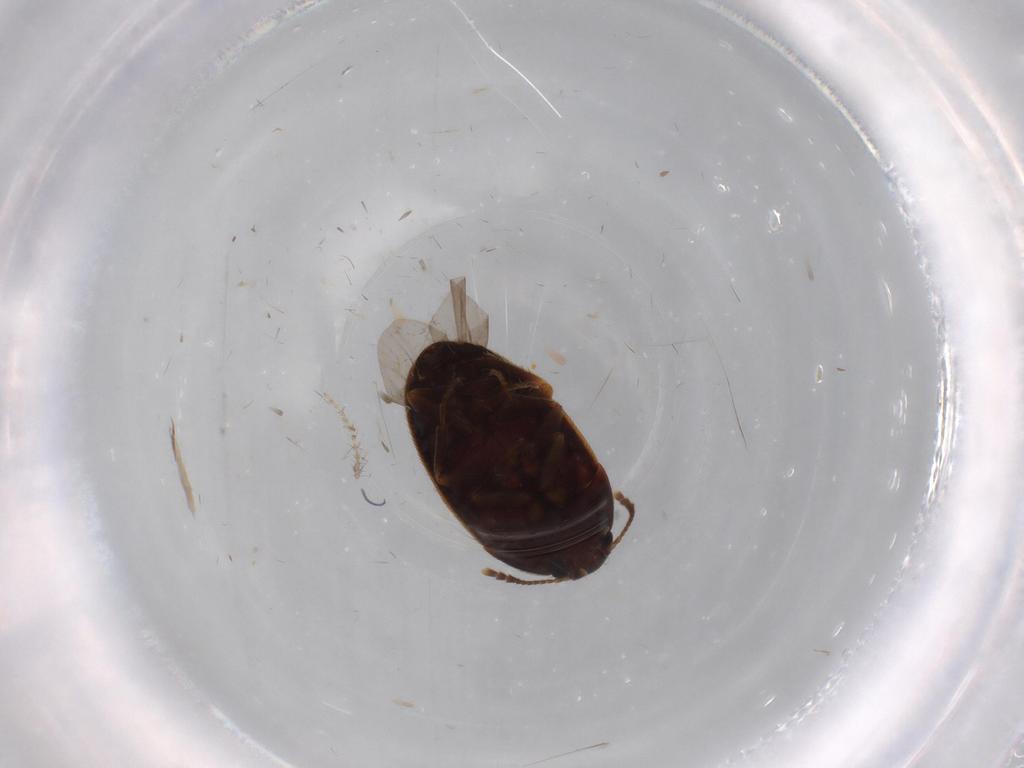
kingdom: Animalia
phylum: Arthropoda
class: Insecta
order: Coleoptera
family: Mycetophagidae
